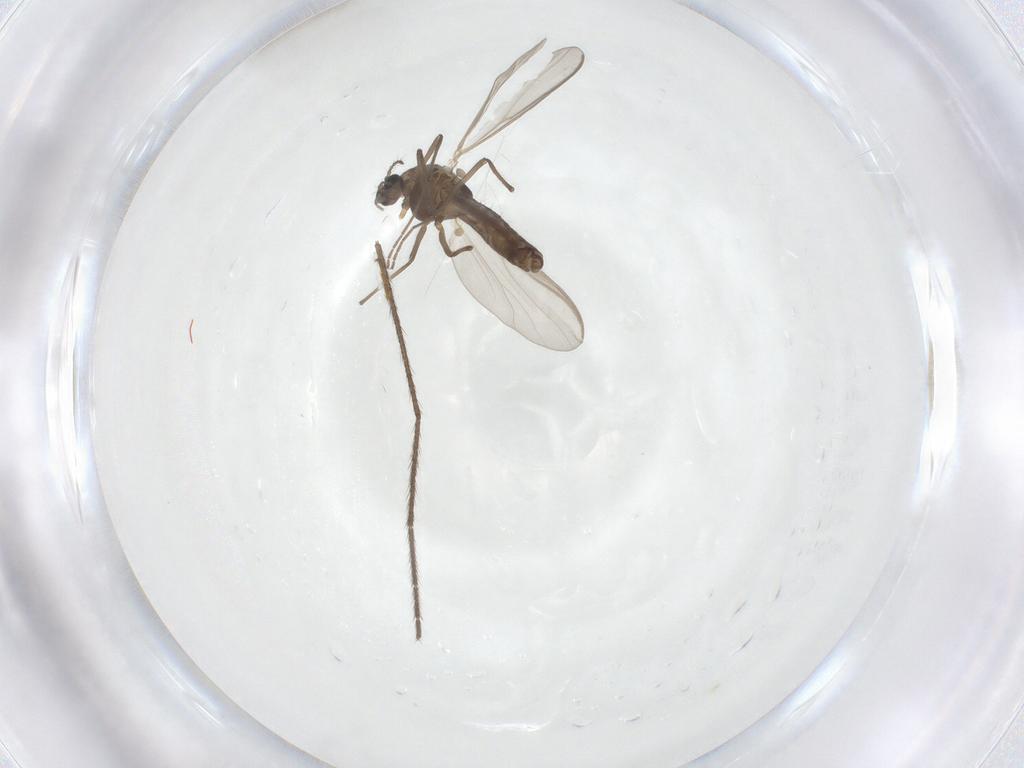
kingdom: Animalia
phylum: Arthropoda
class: Insecta
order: Diptera
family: Chironomidae
